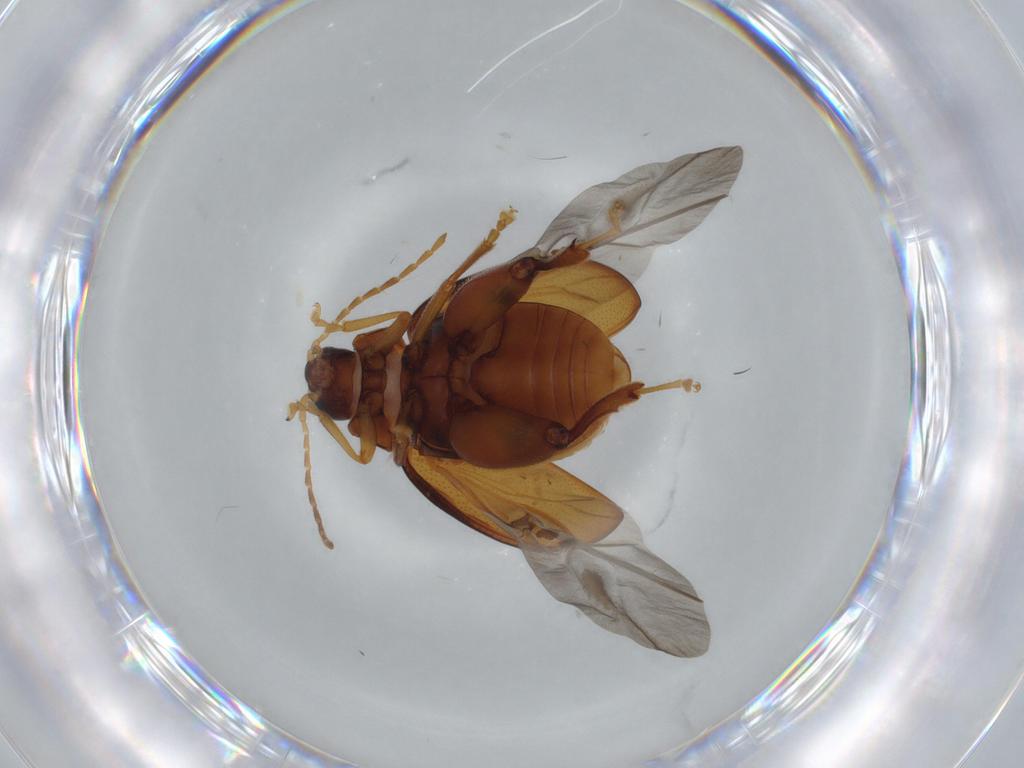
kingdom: Animalia
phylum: Arthropoda
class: Insecta
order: Coleoptera
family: Chrysomelidae
